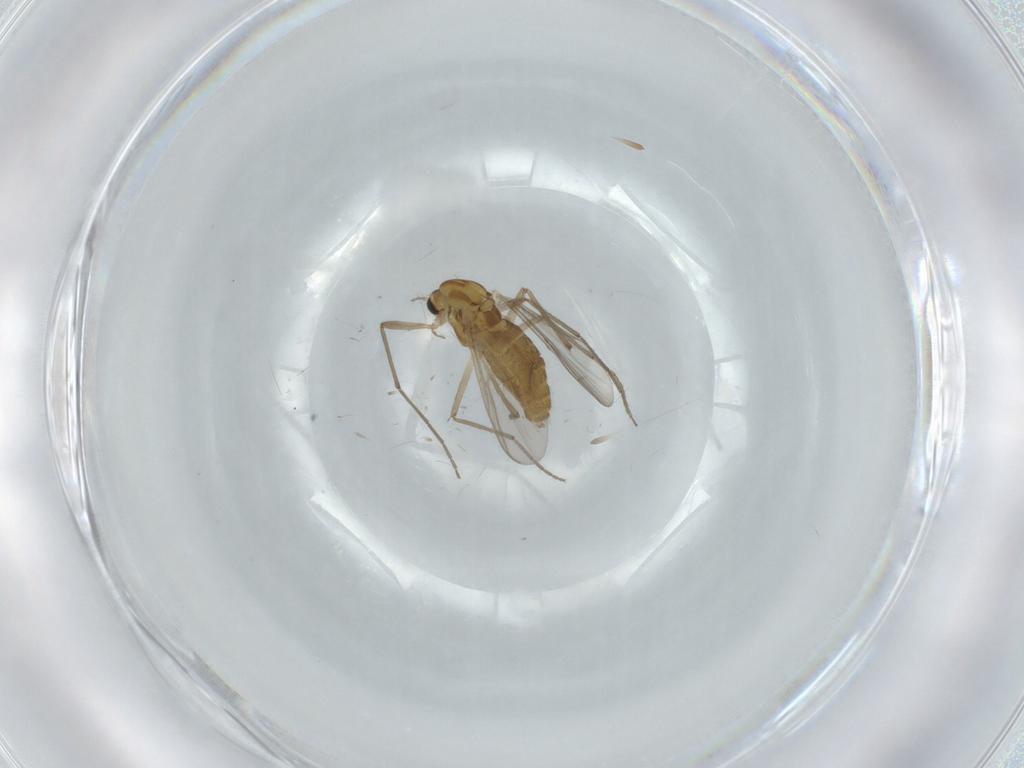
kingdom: Animalia
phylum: Arthropoda
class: Insecta
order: Diptera
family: Chironomidae
